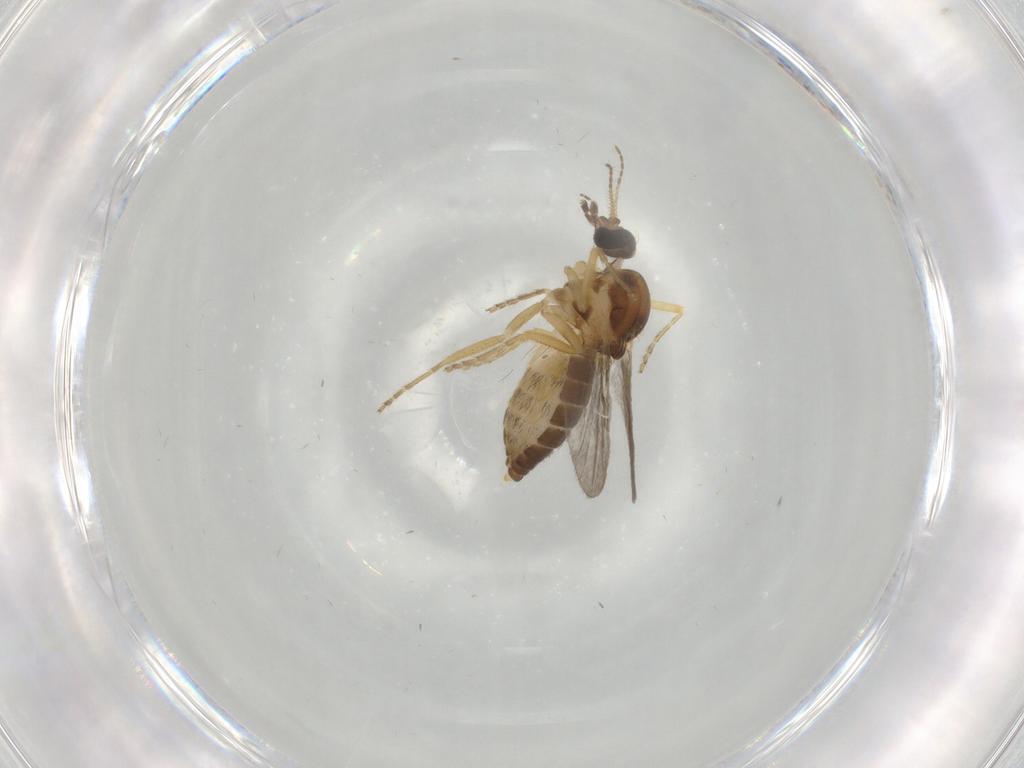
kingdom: Animalia
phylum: Arthropoda
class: Insecta
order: Diptera
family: Ceratopogonidae
